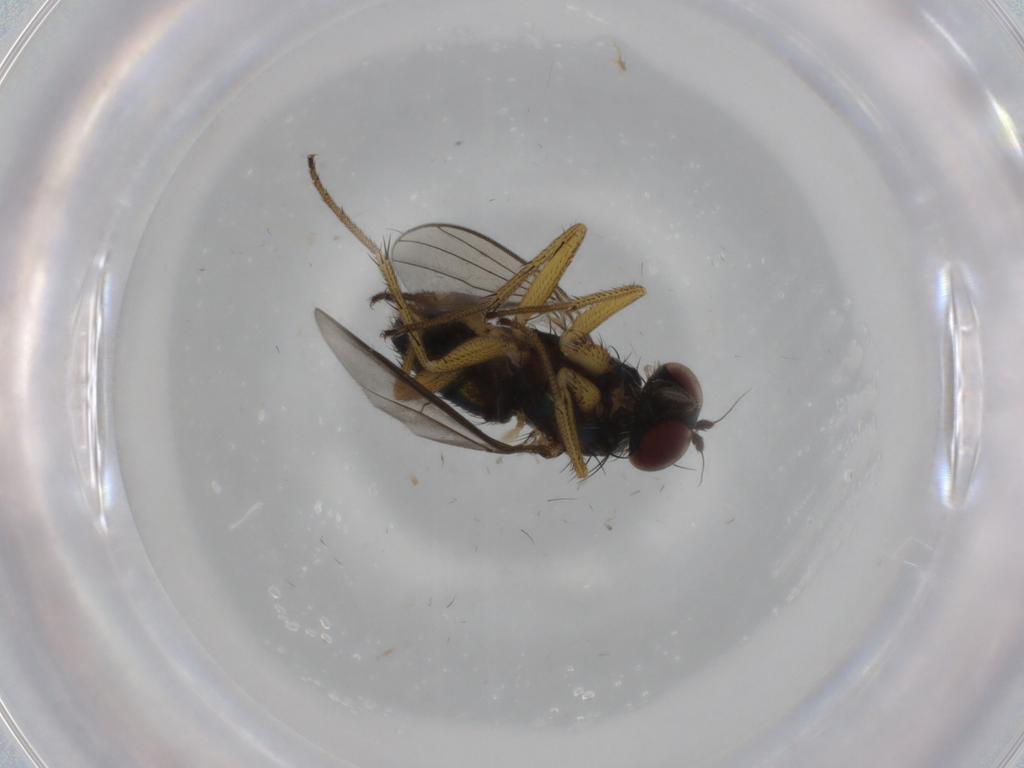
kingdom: Animalia
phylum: Arthropoda
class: Insecta
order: Diptera
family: Dolichopodidae
